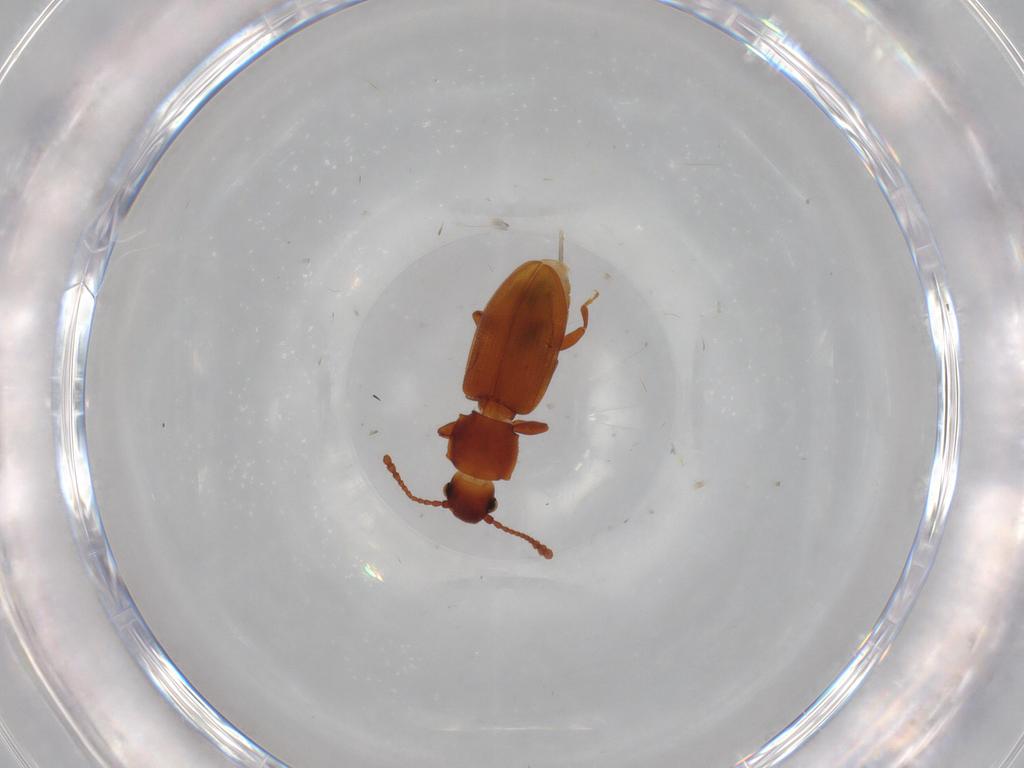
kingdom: Animalia
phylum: Arthropoda
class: Insecta
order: Coleoptera
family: Silvanidae
